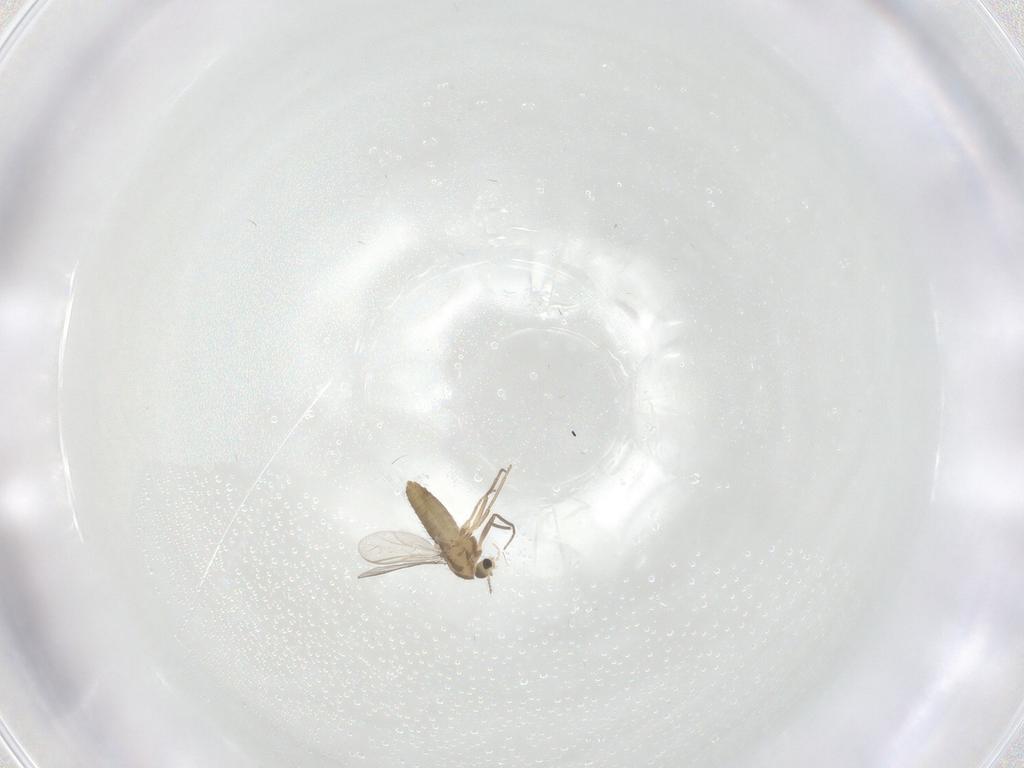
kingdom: Animalia
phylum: Arthropoda
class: Insecta
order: Diptera
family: Chironomidae
